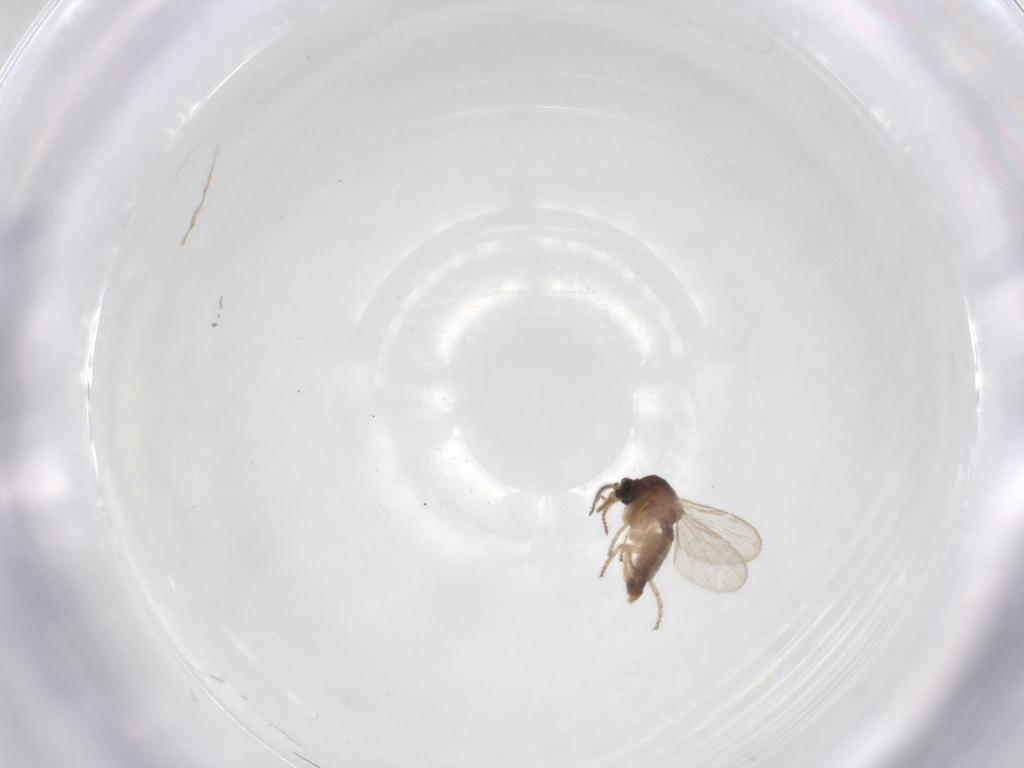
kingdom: Animalia
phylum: Arthropoda
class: Insecta
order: Diptera
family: Ceratopogonidae
